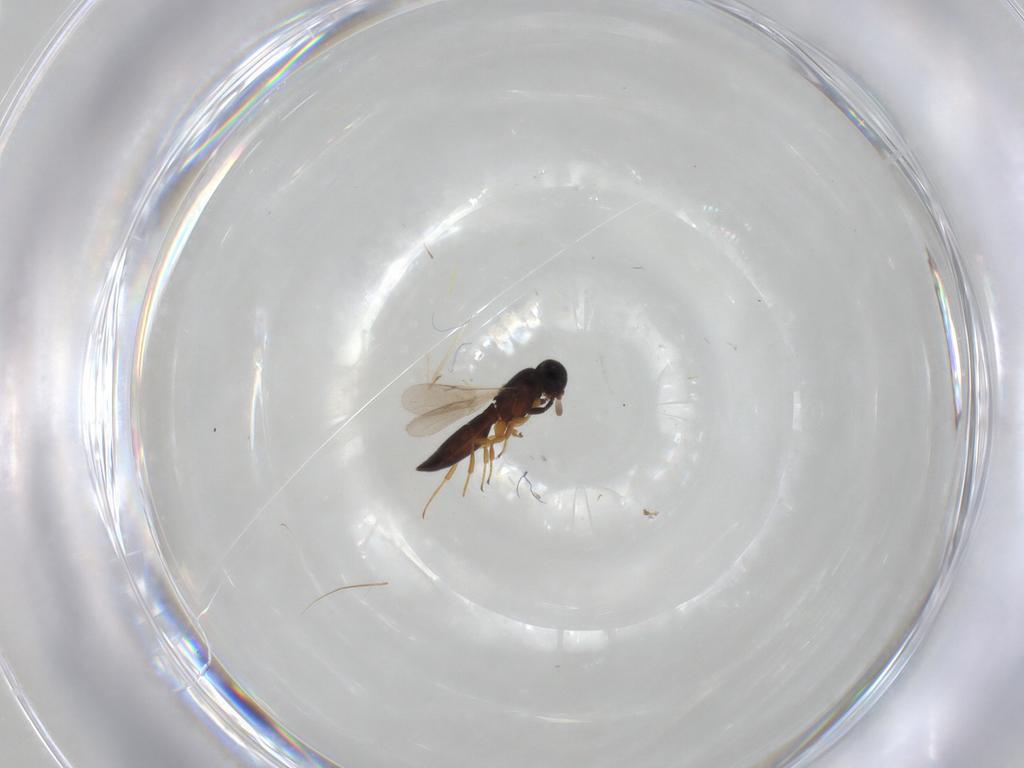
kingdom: Animalia
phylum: Arthropoda
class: Insecta
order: Hymenoptera
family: Scelionidae
